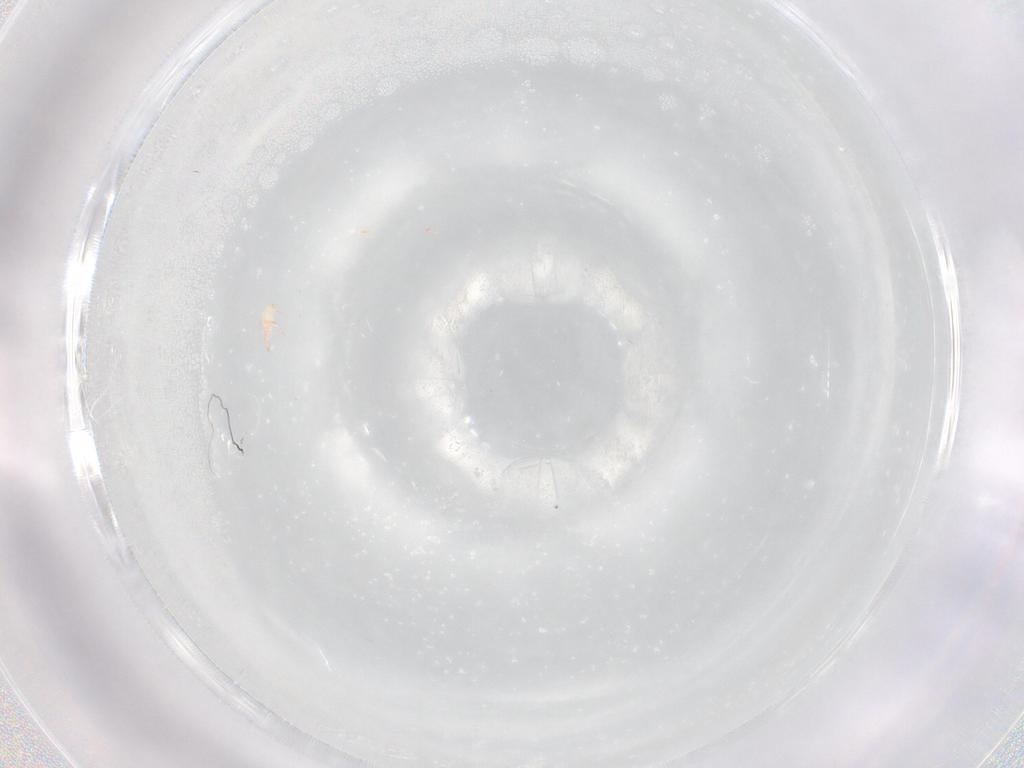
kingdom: Animalia
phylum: Arthropoda
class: Arachnida
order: Trombidiformes
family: Microtrombidiidae
